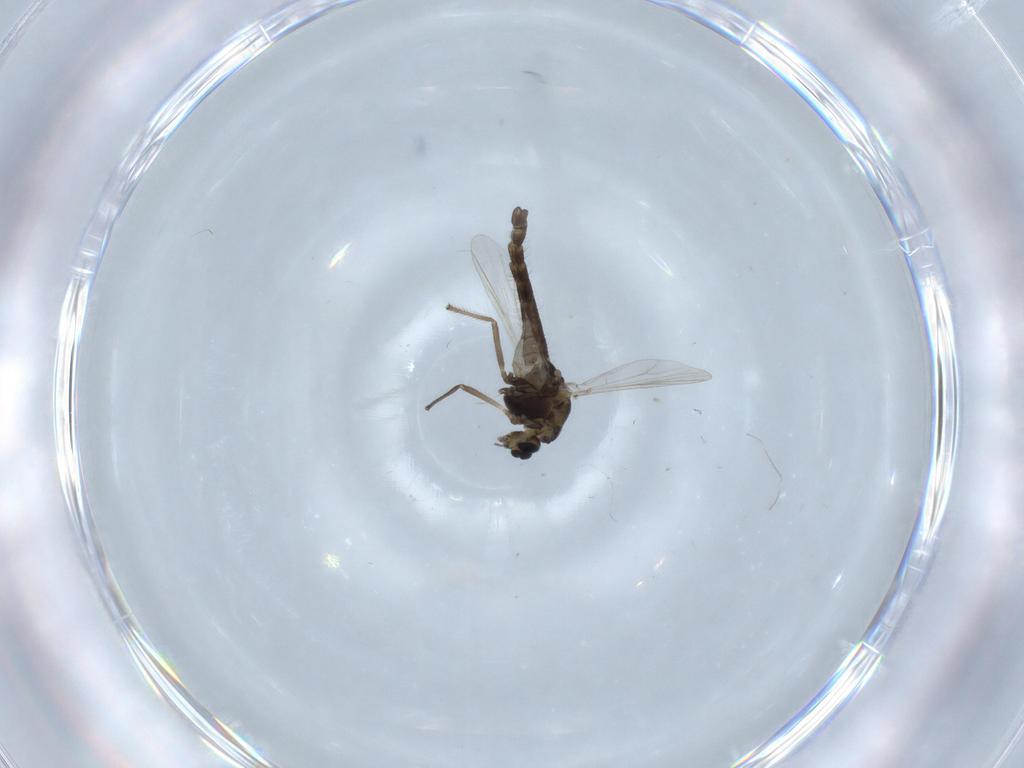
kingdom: Animalia
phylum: Arthropoda
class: Insecta
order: Diptera
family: Chironomidae
